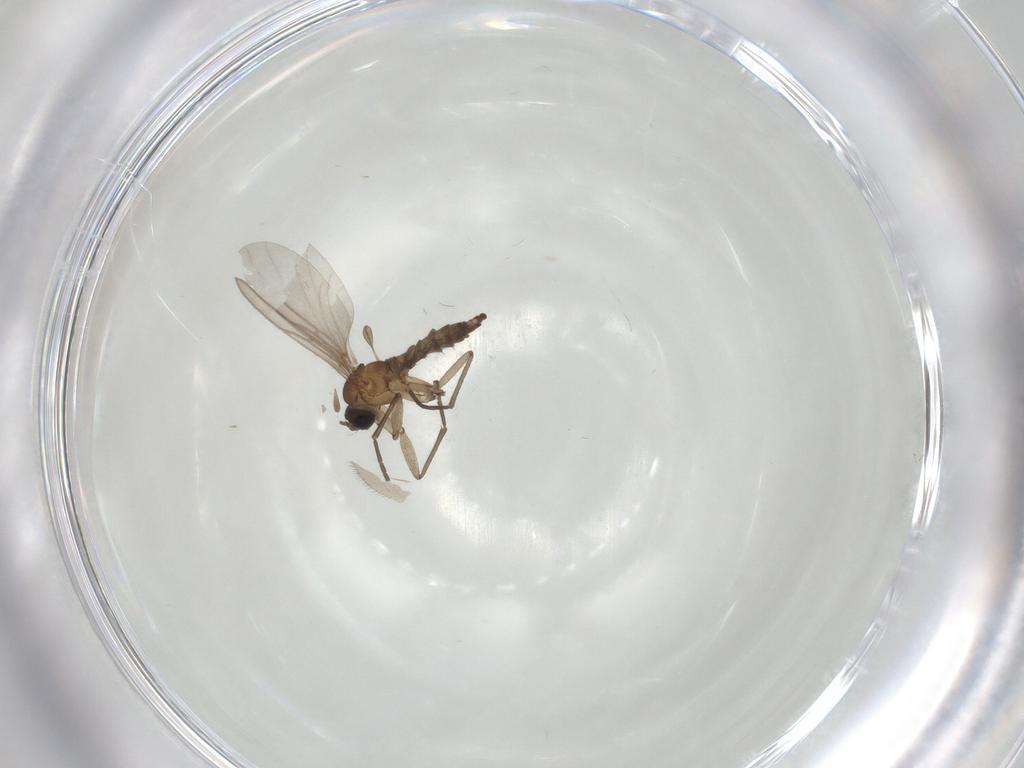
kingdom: Animalia
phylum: Arthropoda
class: Insecta
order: Diptera
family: Sciaridae
